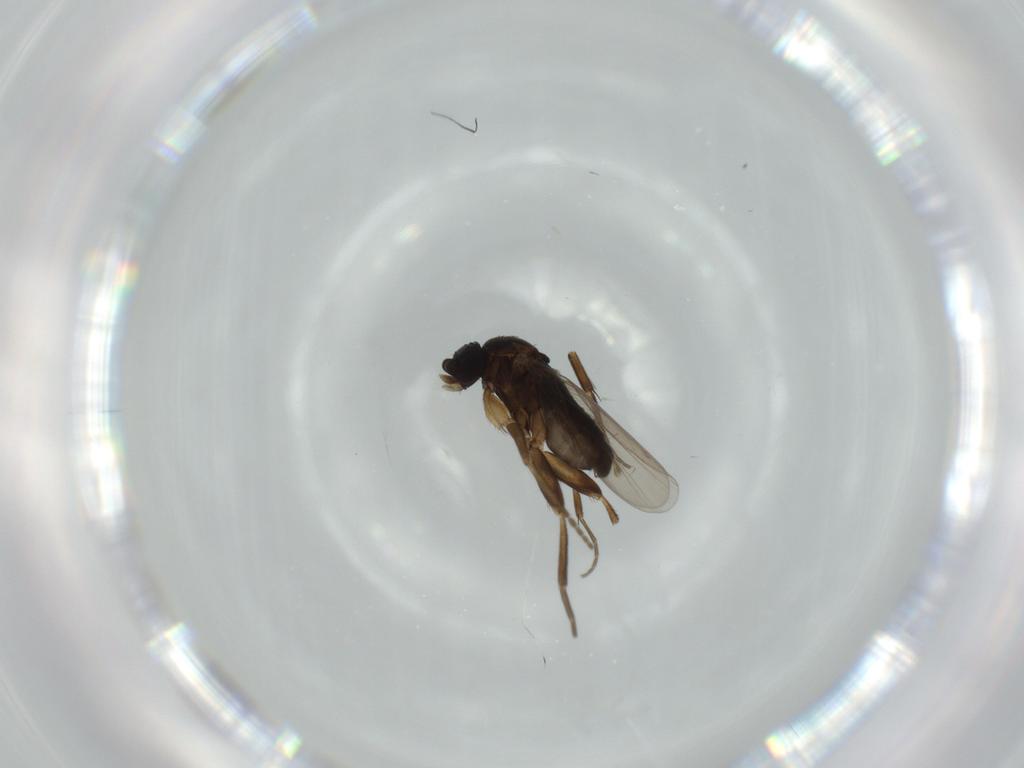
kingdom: Animalia
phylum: Arthropoda
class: Insecta
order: Diptera
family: Phoridae
